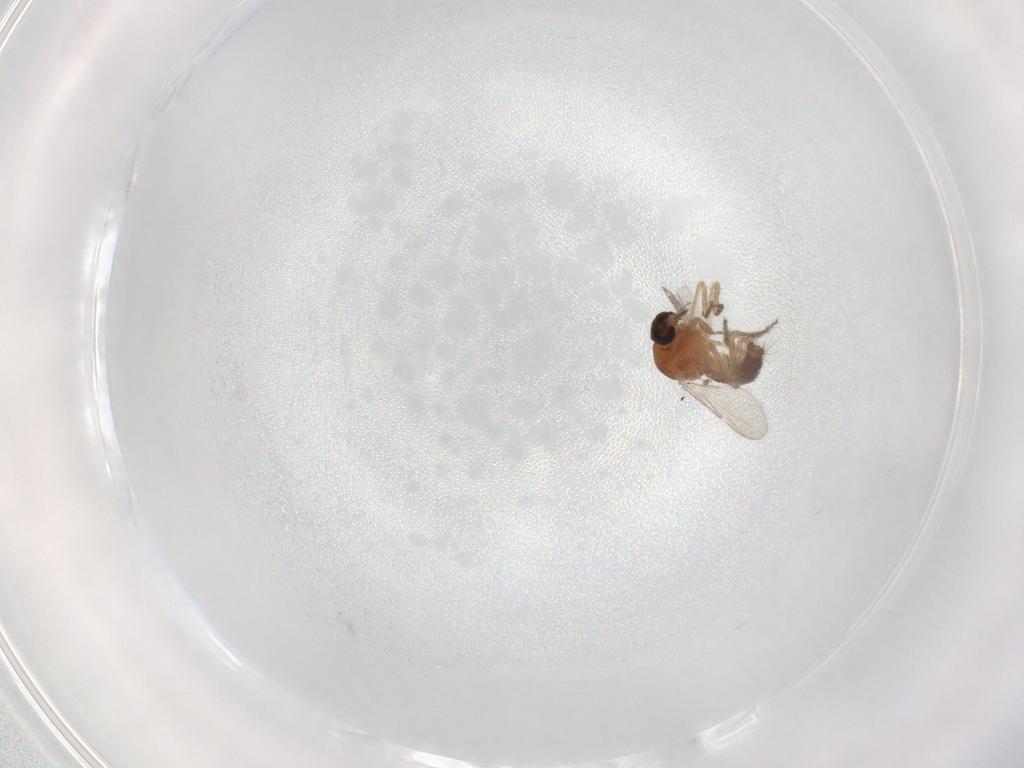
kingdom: Animalia
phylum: Arthropoda
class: Insecta
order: Diptera
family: Ceratopogonidae
